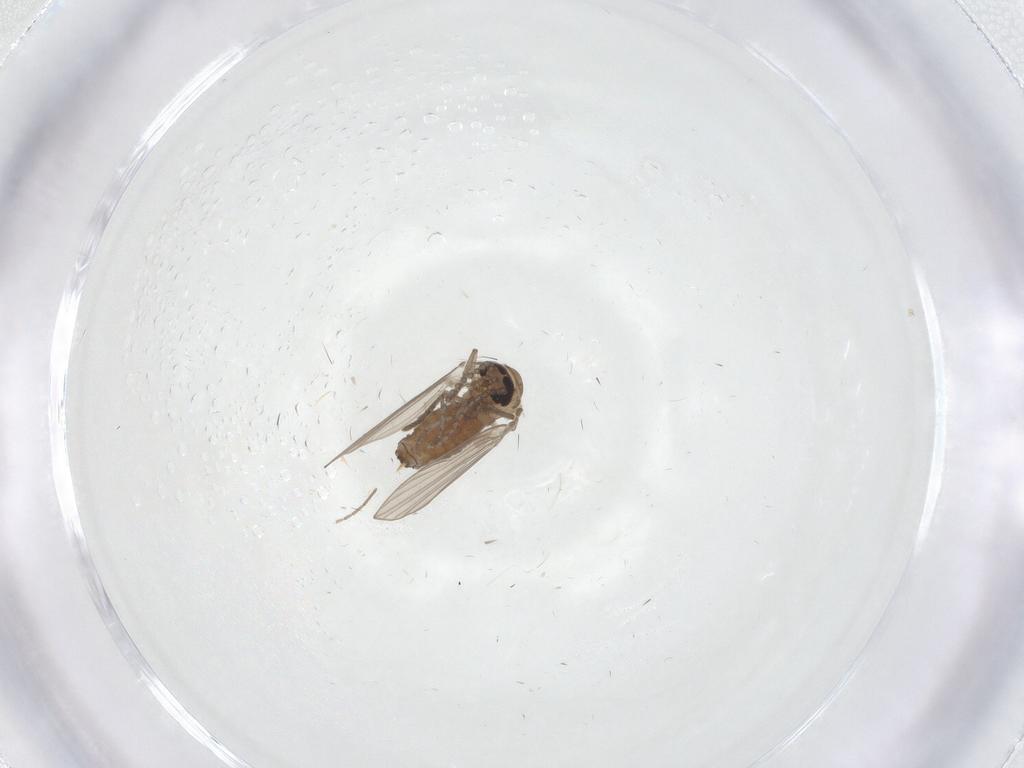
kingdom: Animalia
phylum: Arthropoda
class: Insecta
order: Diptera
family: Psychodidae
